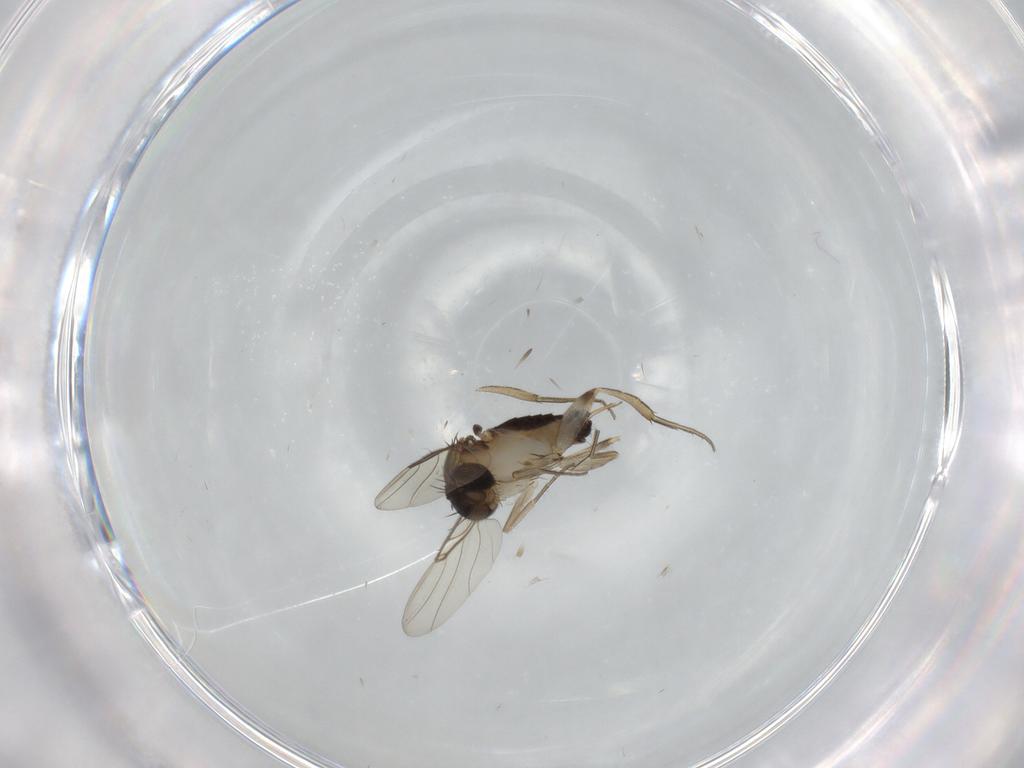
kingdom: Animalia
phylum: Arthropoda
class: Insecta
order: Diptera
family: Phoridae
